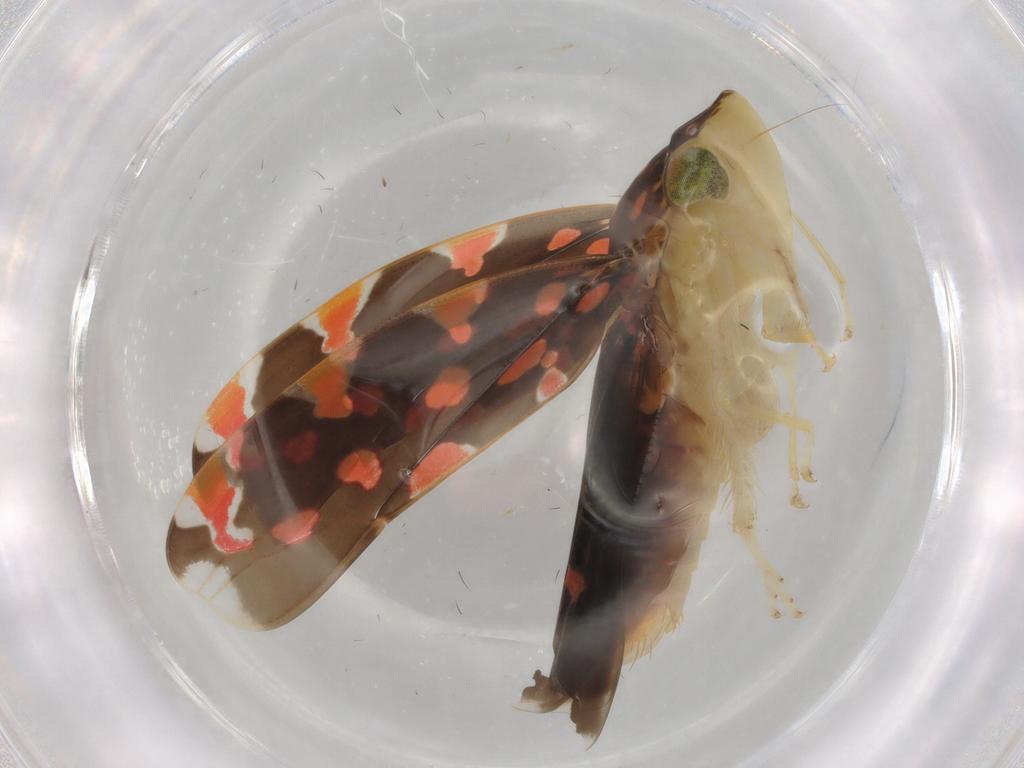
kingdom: Animalia
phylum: Arthropoda
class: Insecta
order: Hemiptera
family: Cicadellidae
